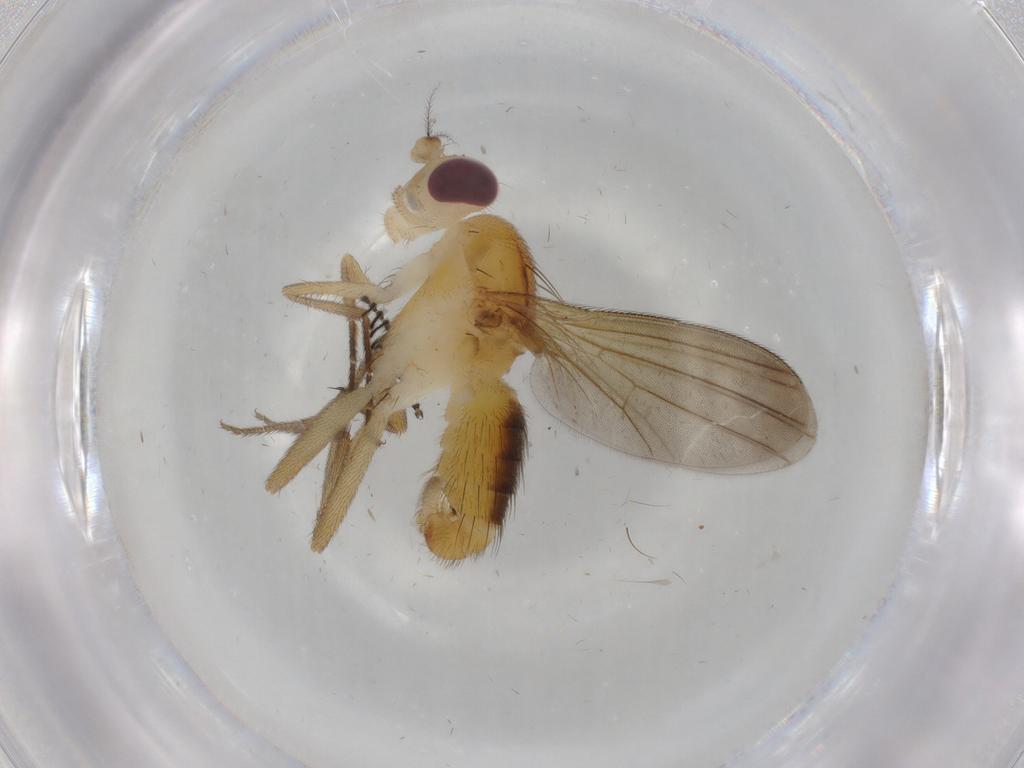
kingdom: Animalia
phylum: Arthropoda
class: Insecta
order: Diptera
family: Clusiidae
